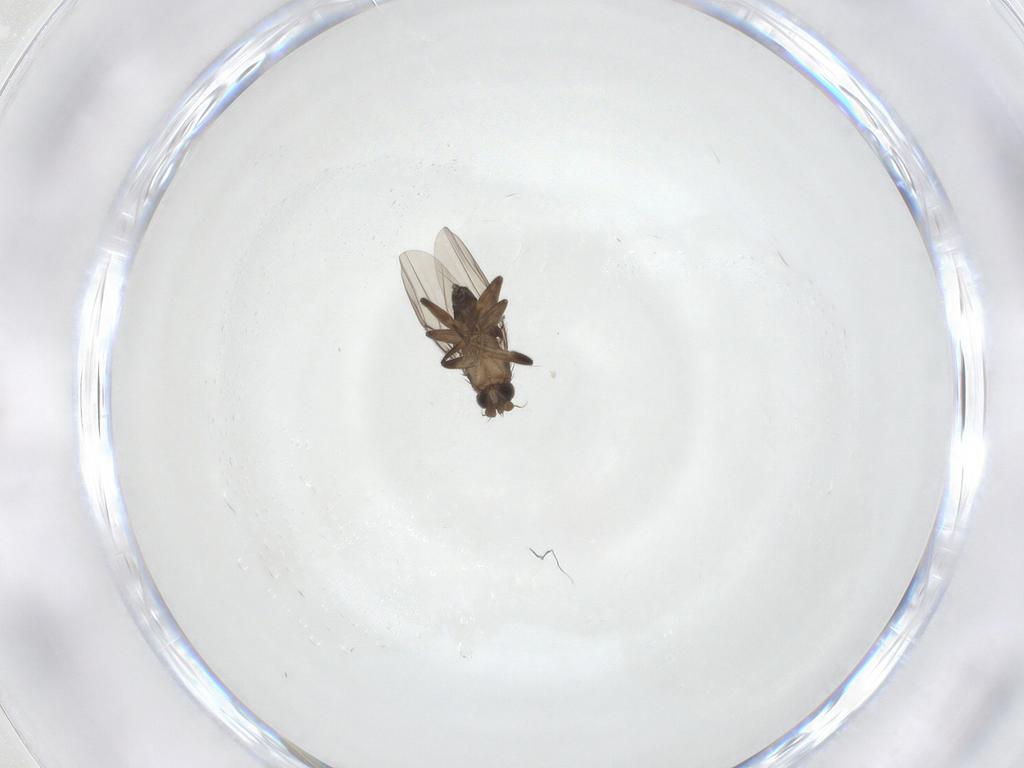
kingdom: Animalia
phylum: Arthropoda
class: Insecta
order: Diptera
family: Phoridae
